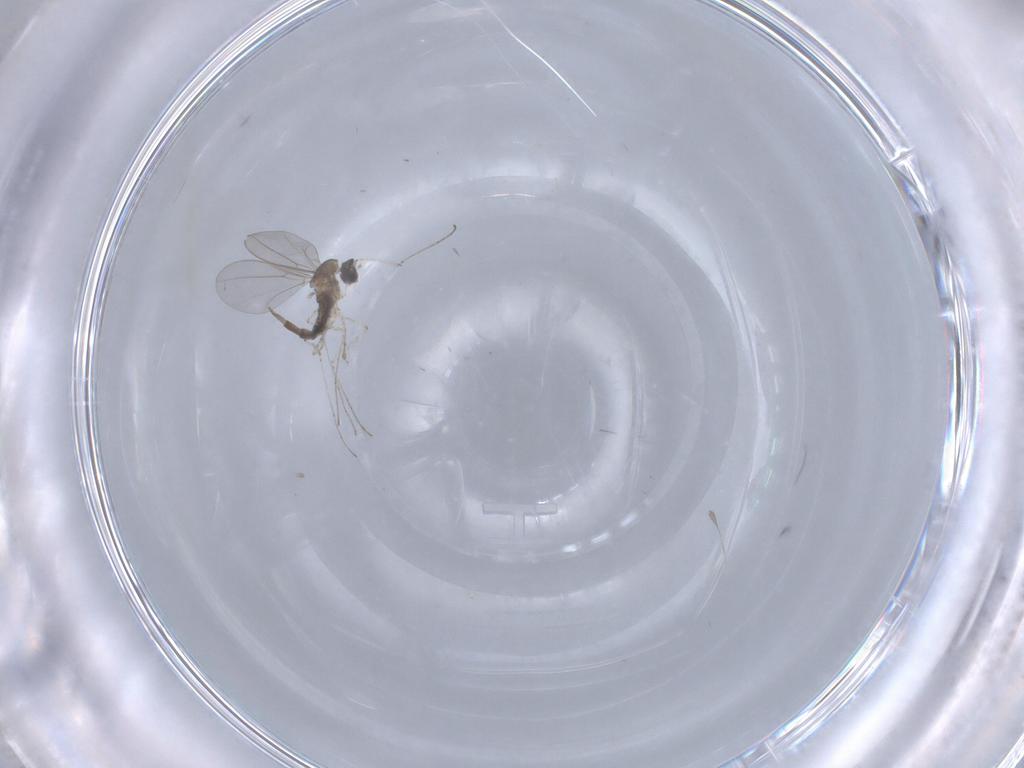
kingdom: Animalia
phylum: Arthropoda
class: Insecta
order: Diptera
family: Cecidomyiidae
